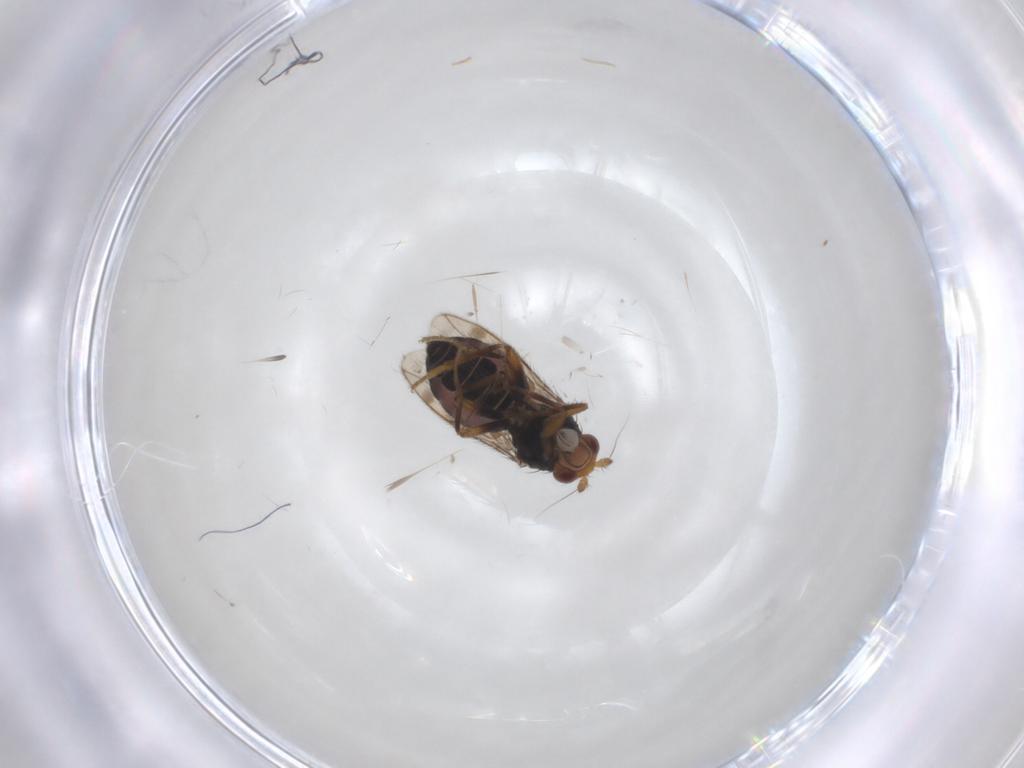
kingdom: Animalia
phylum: Arthropoda
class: Insecta
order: Diptera
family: Sphaeroceridae
